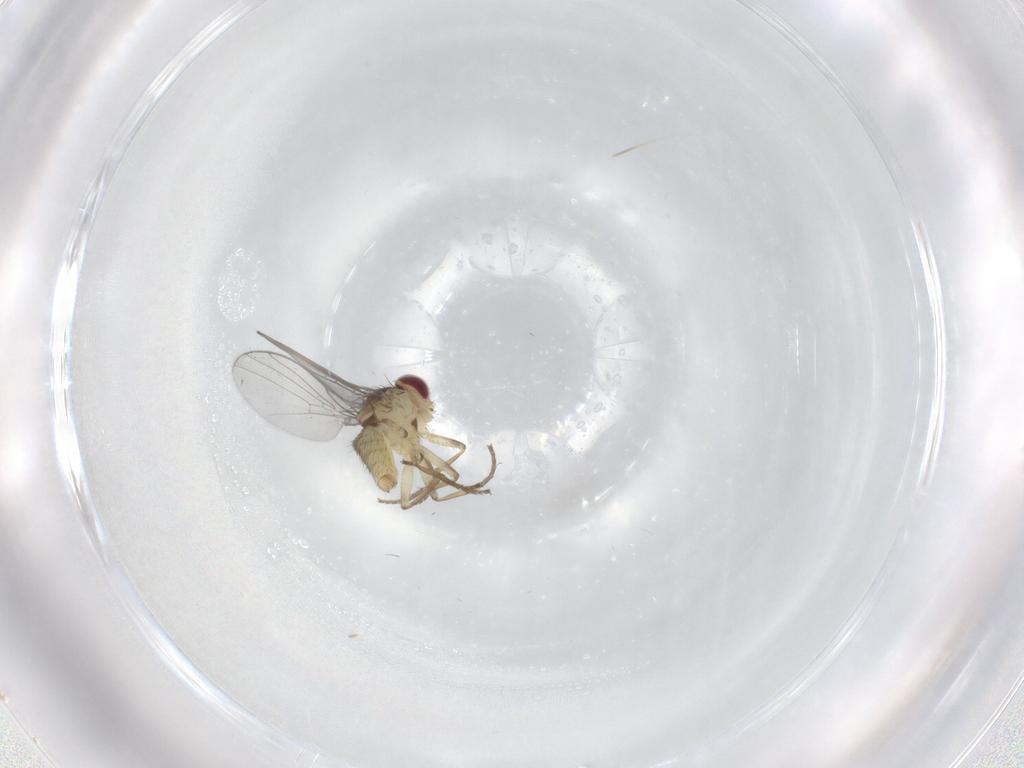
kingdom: Animalia
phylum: Arthropoda
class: Insecta
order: Diptera
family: Agromyzidae
